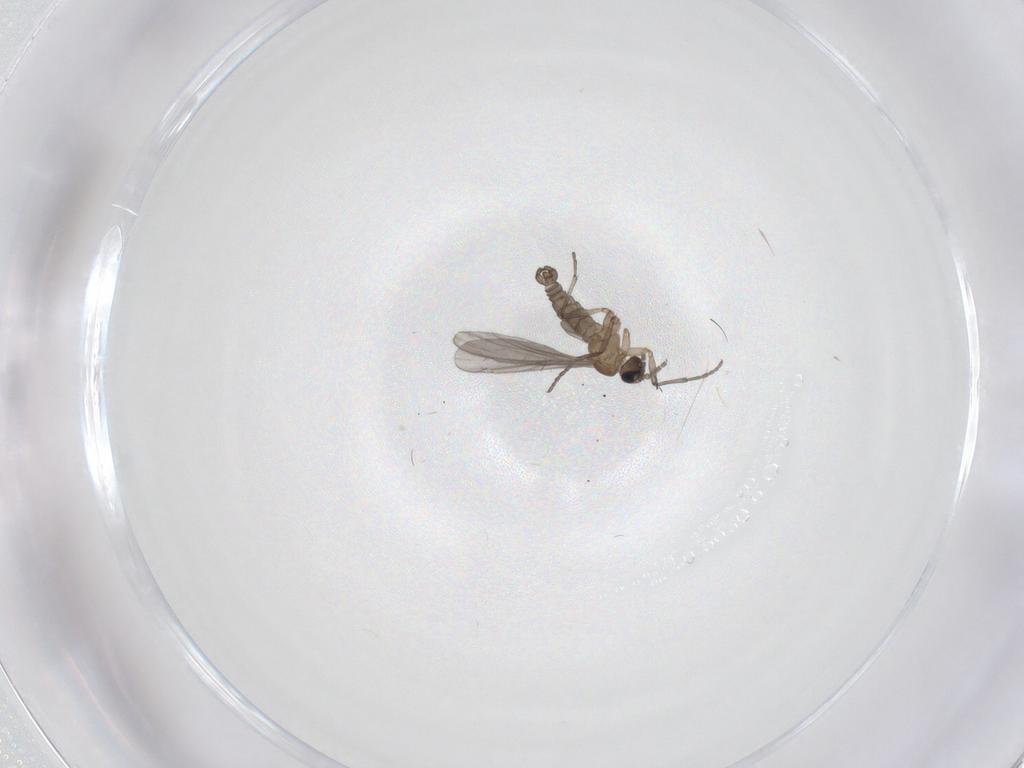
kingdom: Animalia
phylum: Arthropoda
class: Insecta
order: Diptera
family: Sciaridae
